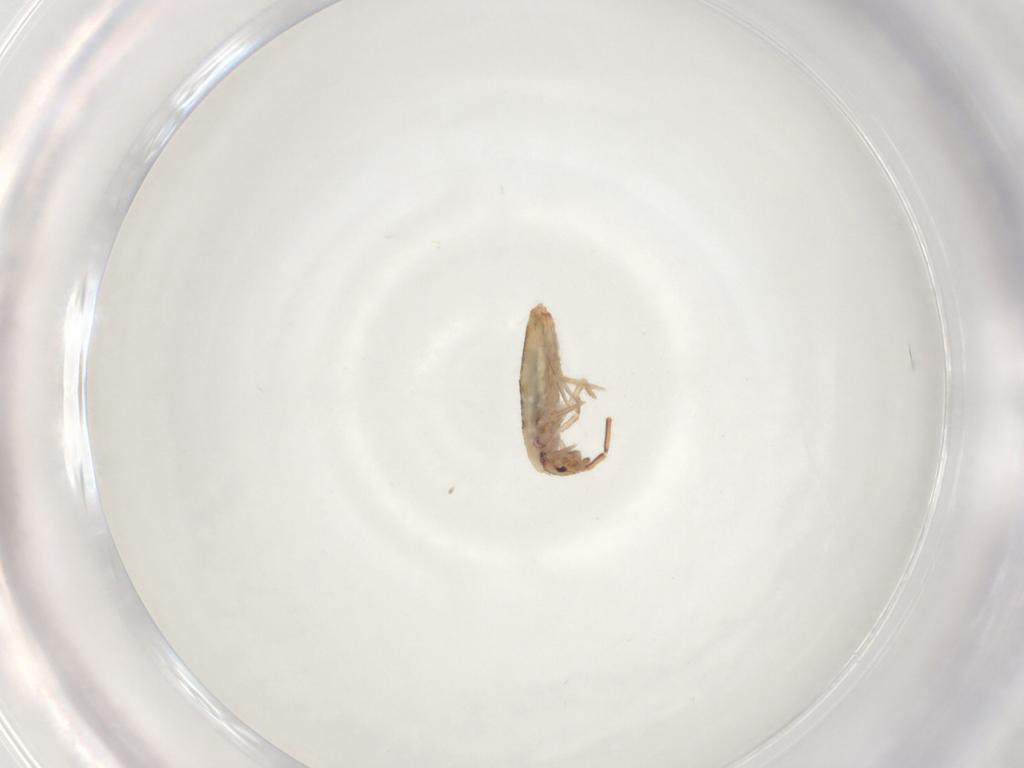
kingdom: Animalia
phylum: Arthropoda
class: Collembola
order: Entomobryomorpha
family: Entomobryidae
